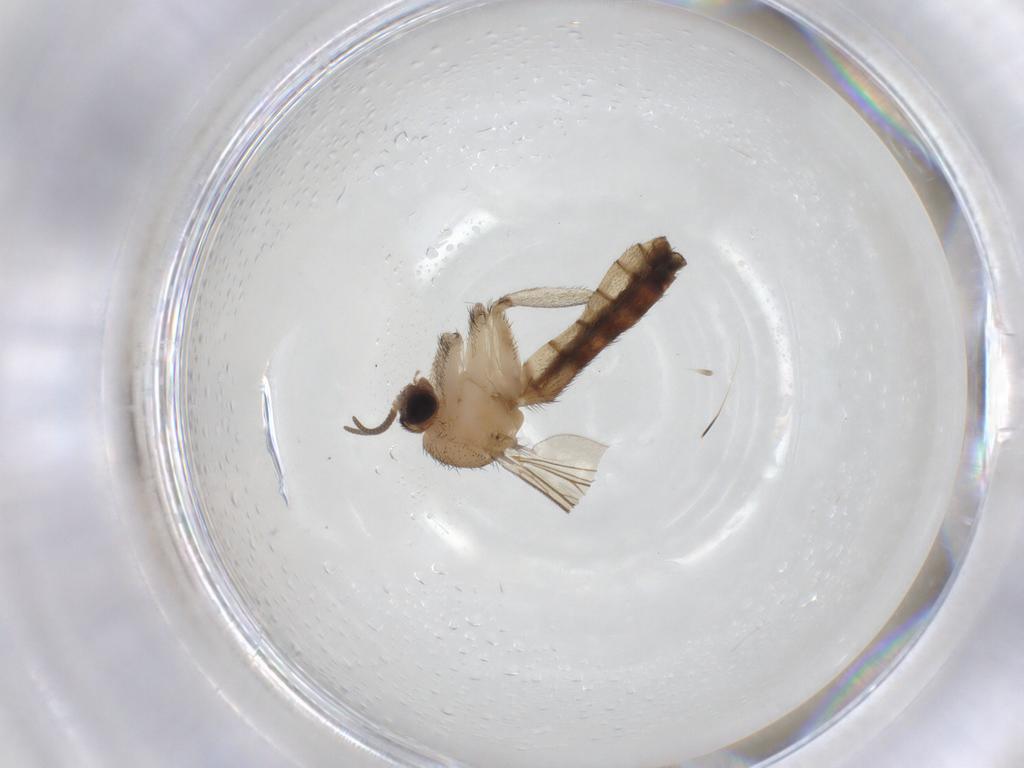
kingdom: Animalia
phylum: Arthropoda
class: Insecta
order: Diptera
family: Keroplatidae
